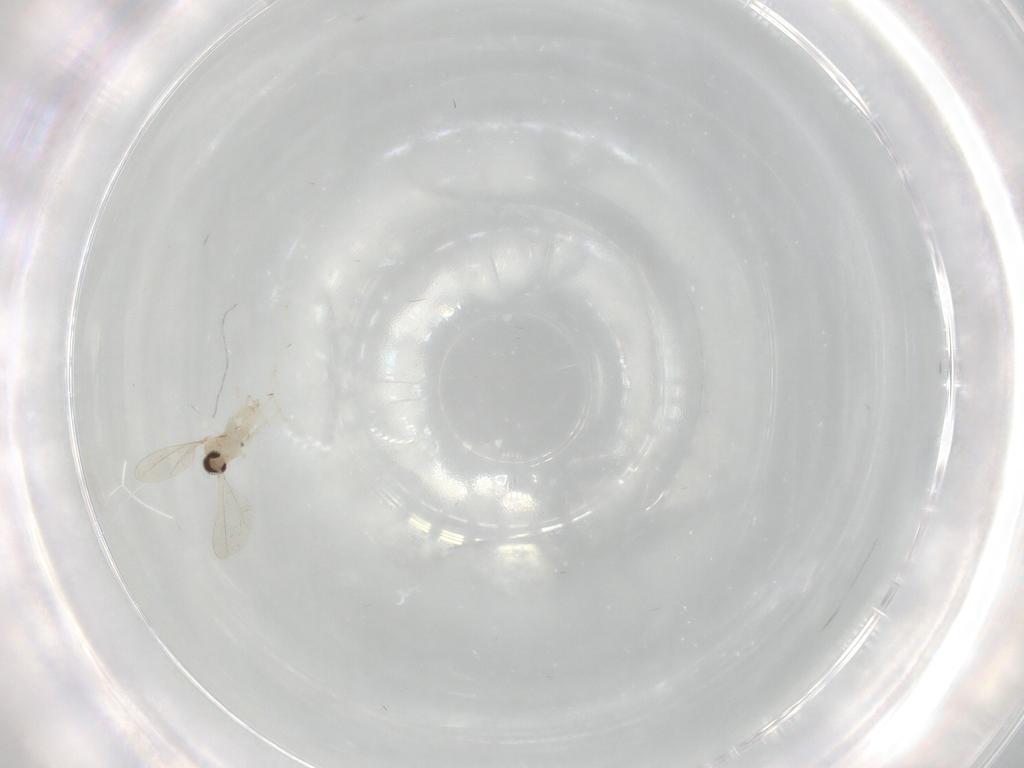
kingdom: Animalia
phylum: Arthropoda
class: Insecta
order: Diptera
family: Cecidomyiidae
